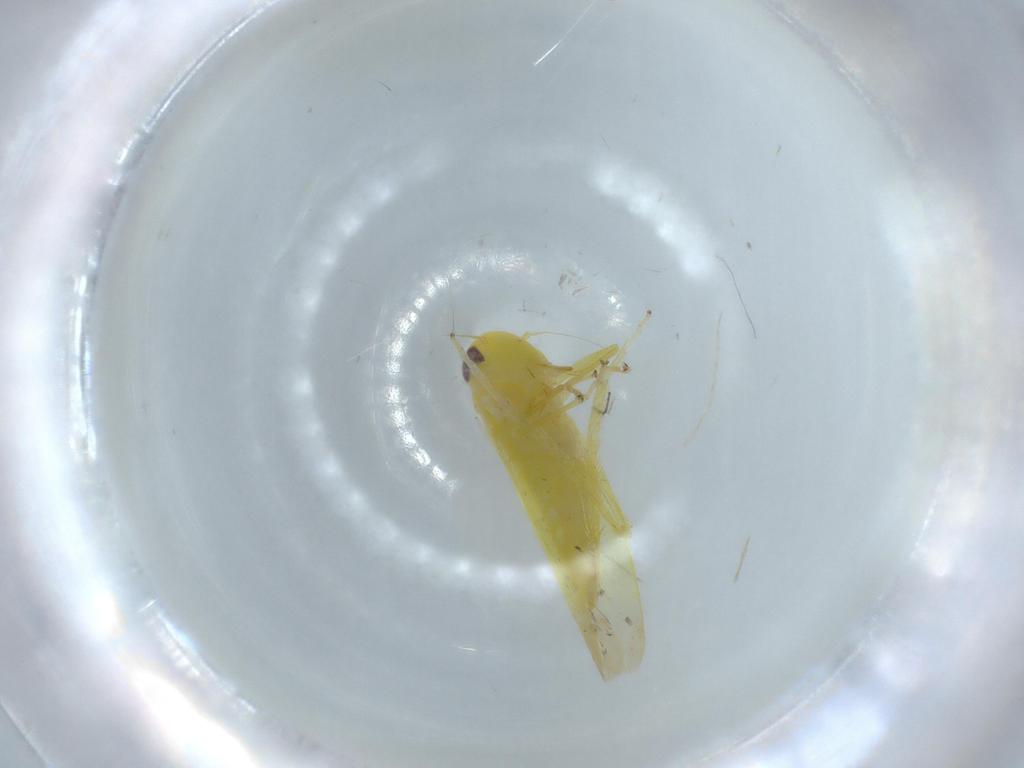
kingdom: Animalia
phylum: Arthropoda
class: Insecta
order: Hemiptera
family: Cicadellidae
